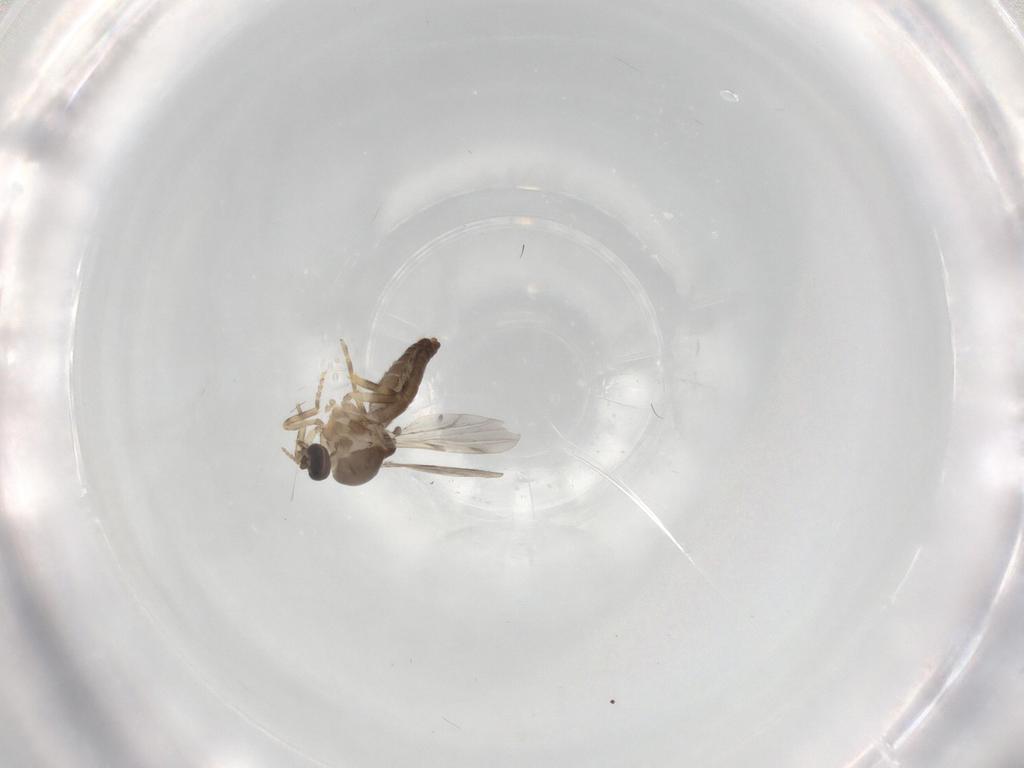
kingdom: Animalia
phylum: Arthropoda
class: Insecta
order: Diptera
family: Ceratopogonidae
